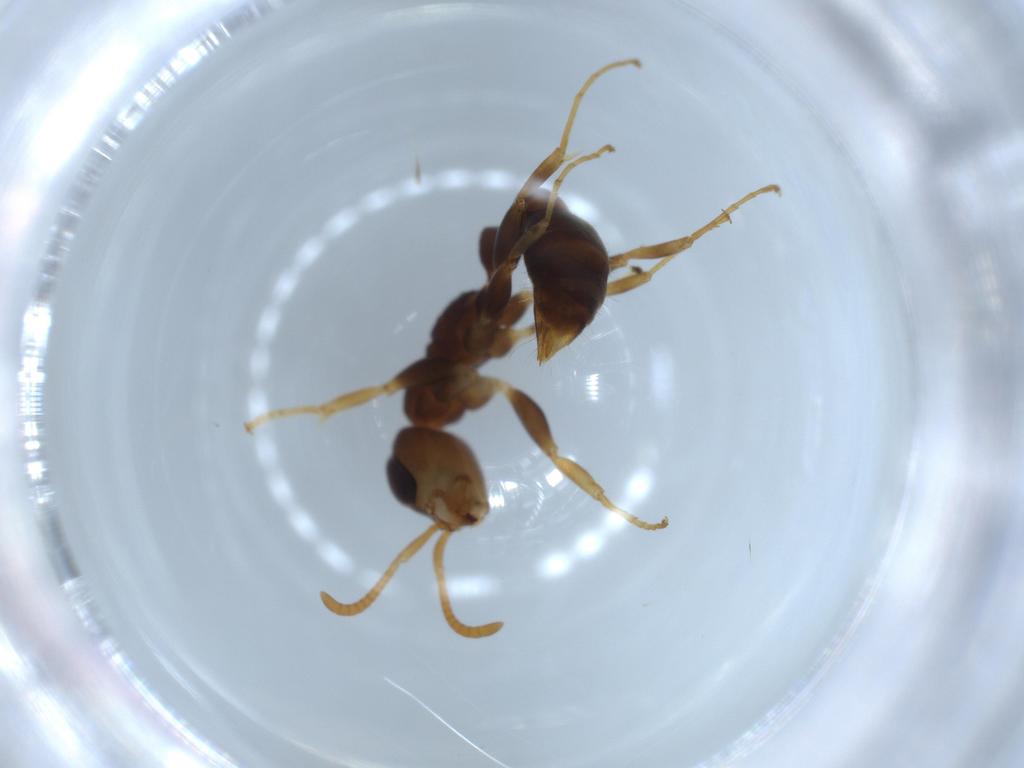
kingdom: Animalia
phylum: Arthropoda
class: Insecta
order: Hymenoptera
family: Formicidae
